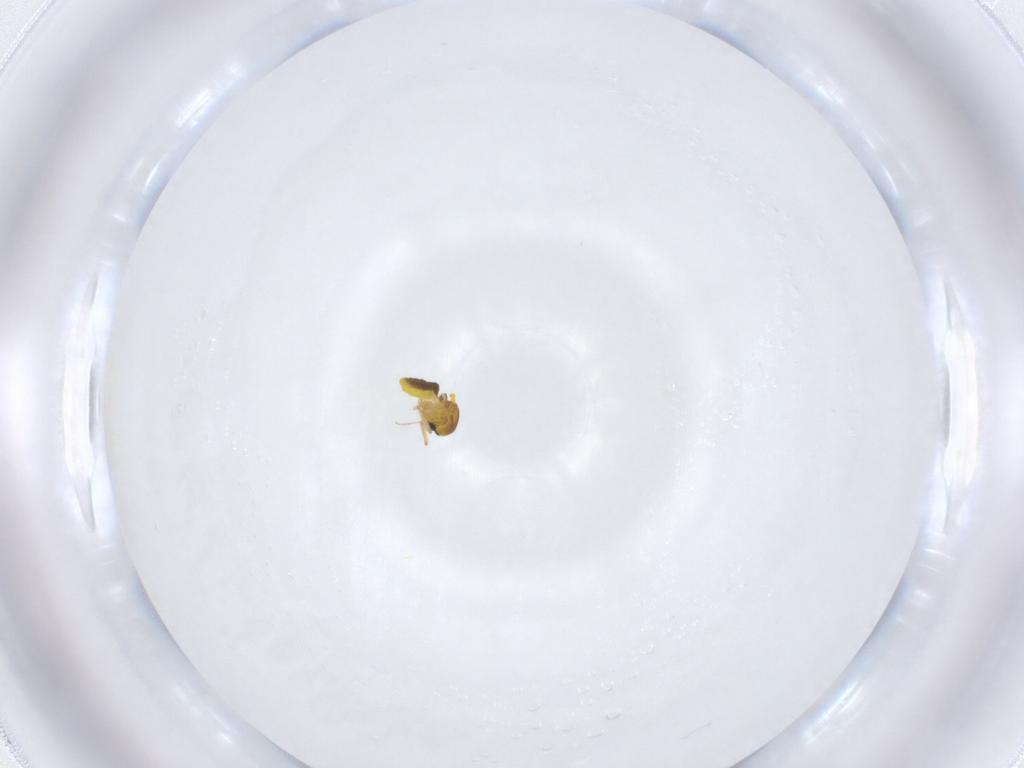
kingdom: Animalia
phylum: Arthropoda
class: Insecta
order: Diptera
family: Ceratopogonidae
